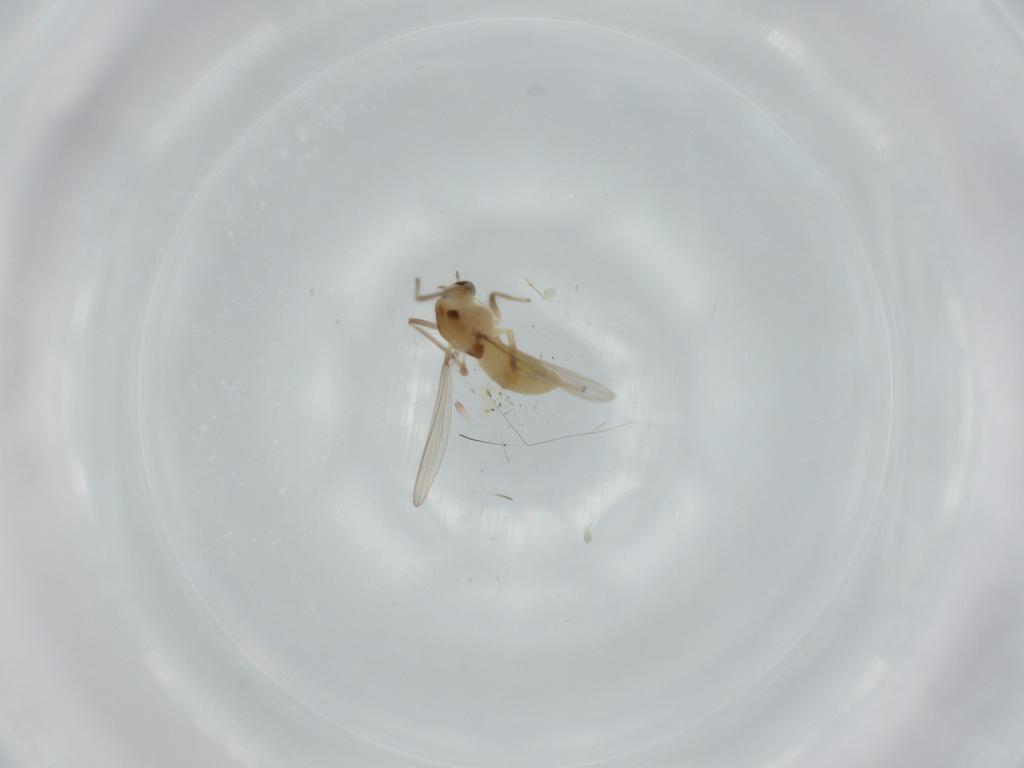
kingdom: Animalia
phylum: Arthropoda
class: Insecta
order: Diptera
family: Chironomidae
